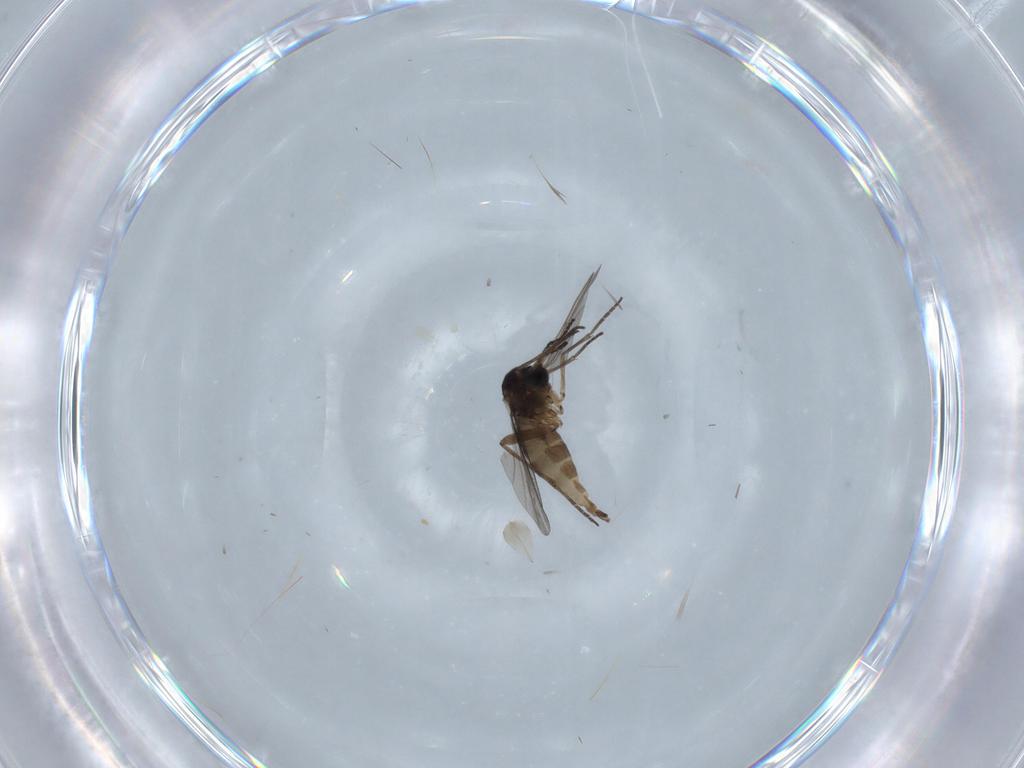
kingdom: Animalia
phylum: Arthropoda
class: Insecta
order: Diptera
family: Sciaridae
